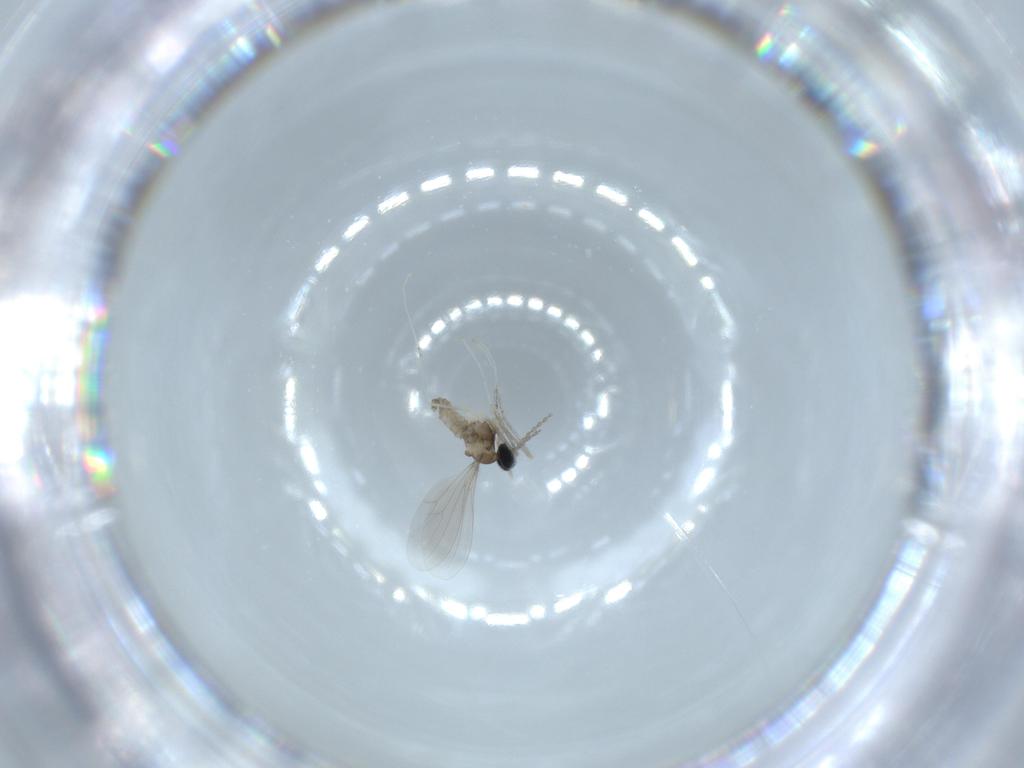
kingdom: Animalia
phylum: Arthropoda
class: Insecta
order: Diptera
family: Cecidomyiidae
